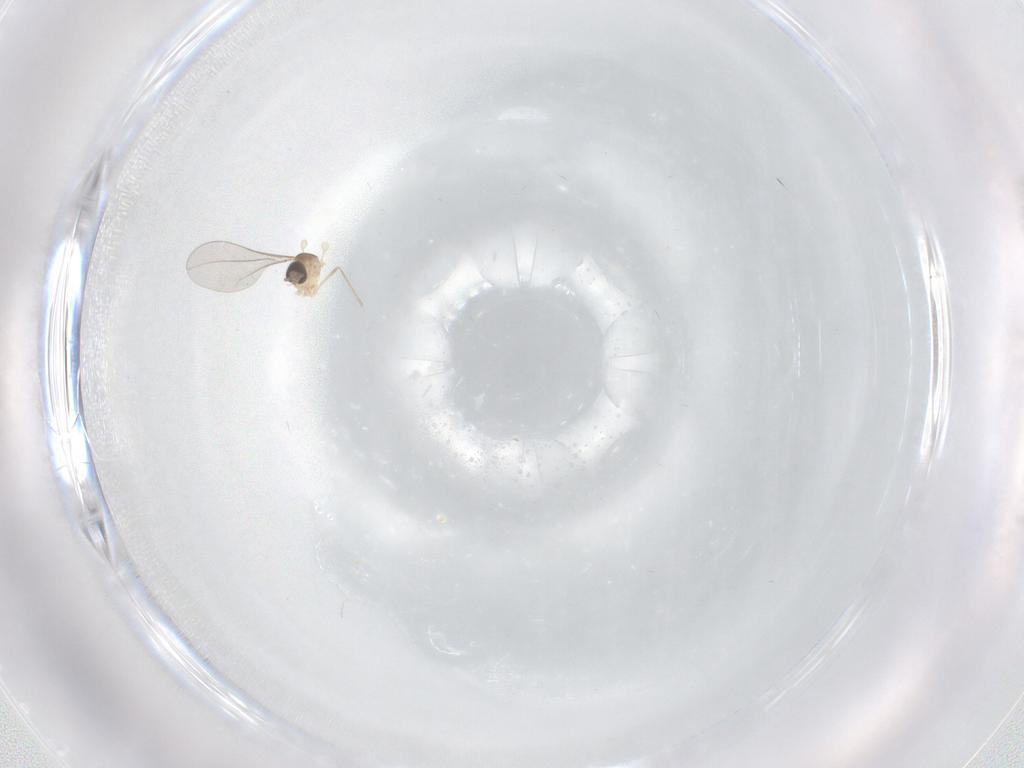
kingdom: Animalia
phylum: Arthropoda
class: Insecta
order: Diptera
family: Cecidomyiidae
